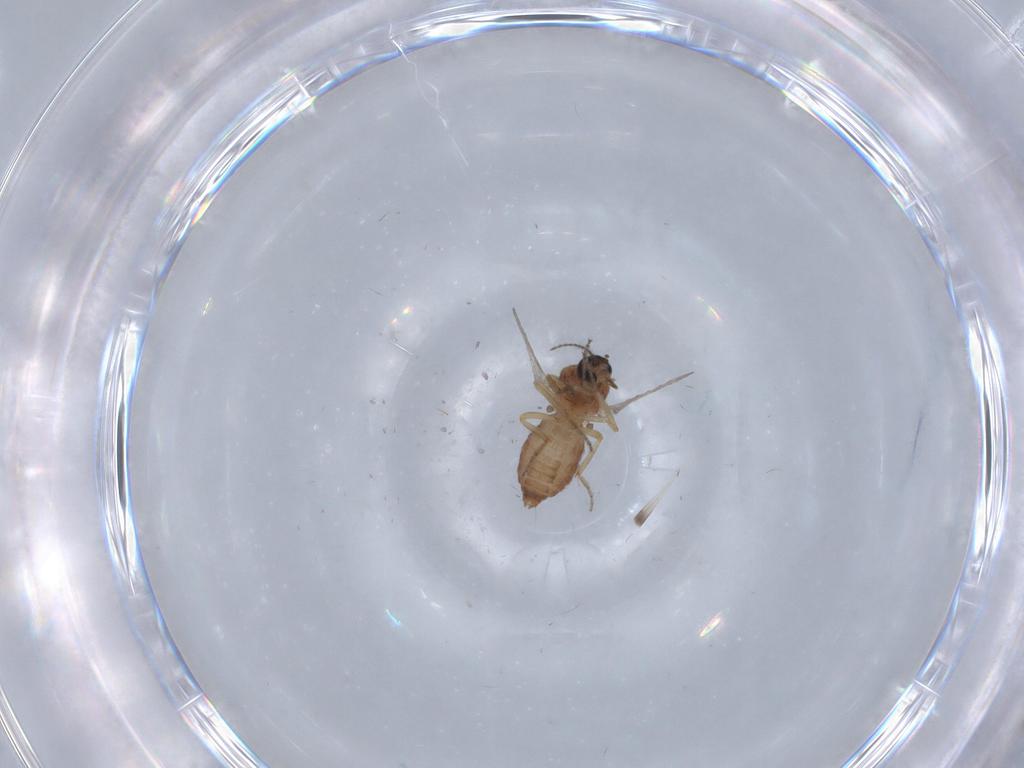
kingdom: Animalia
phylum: Arthropoda
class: Insecta
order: Diptera
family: Ceratopogonidae
